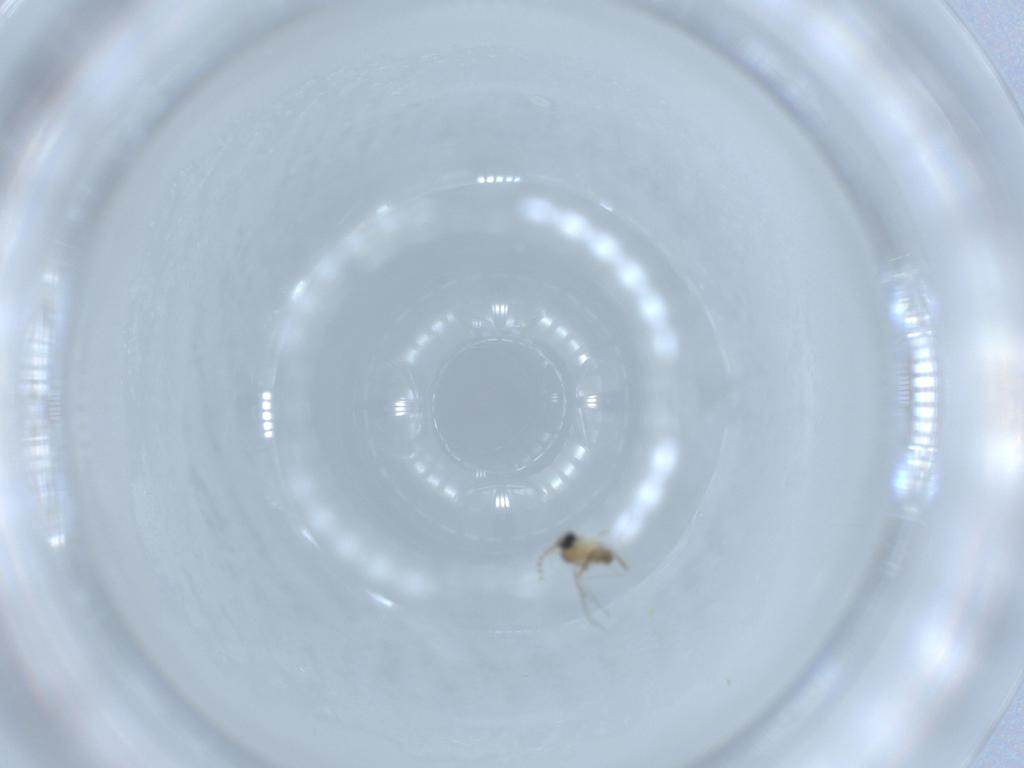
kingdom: Animalia
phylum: Arthropoda
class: Insecta
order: Diptera
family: Cecidomyiidae
